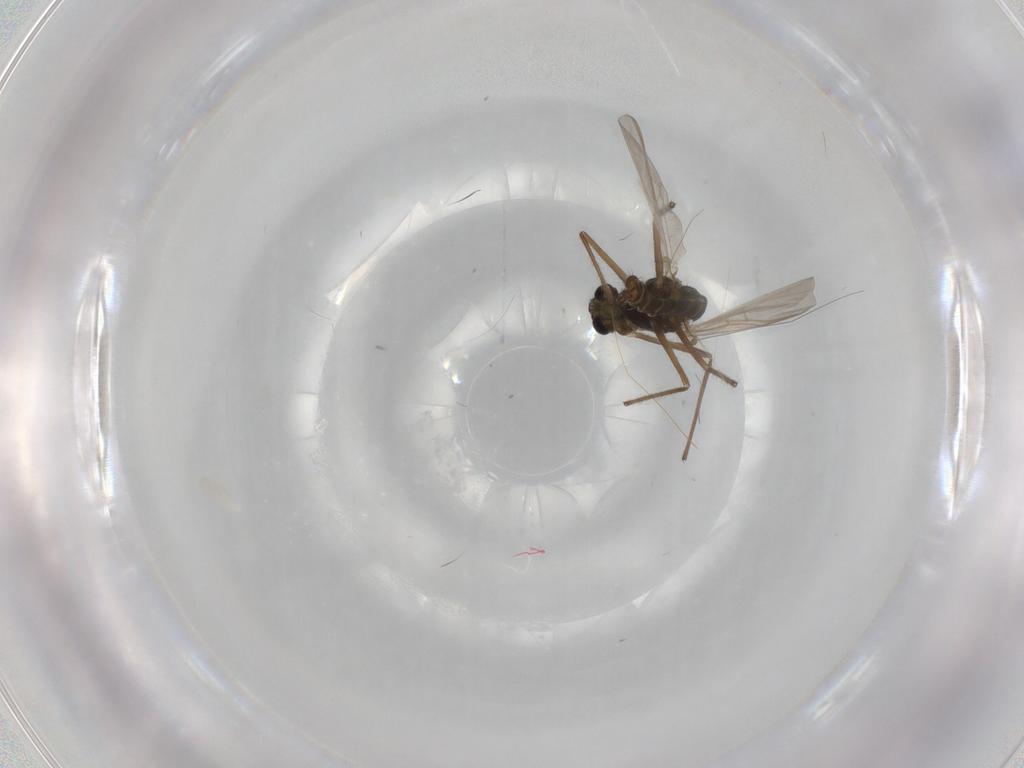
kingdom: Animalia
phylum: Arthropoda
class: Insecta
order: Diptera
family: Chironomidae
